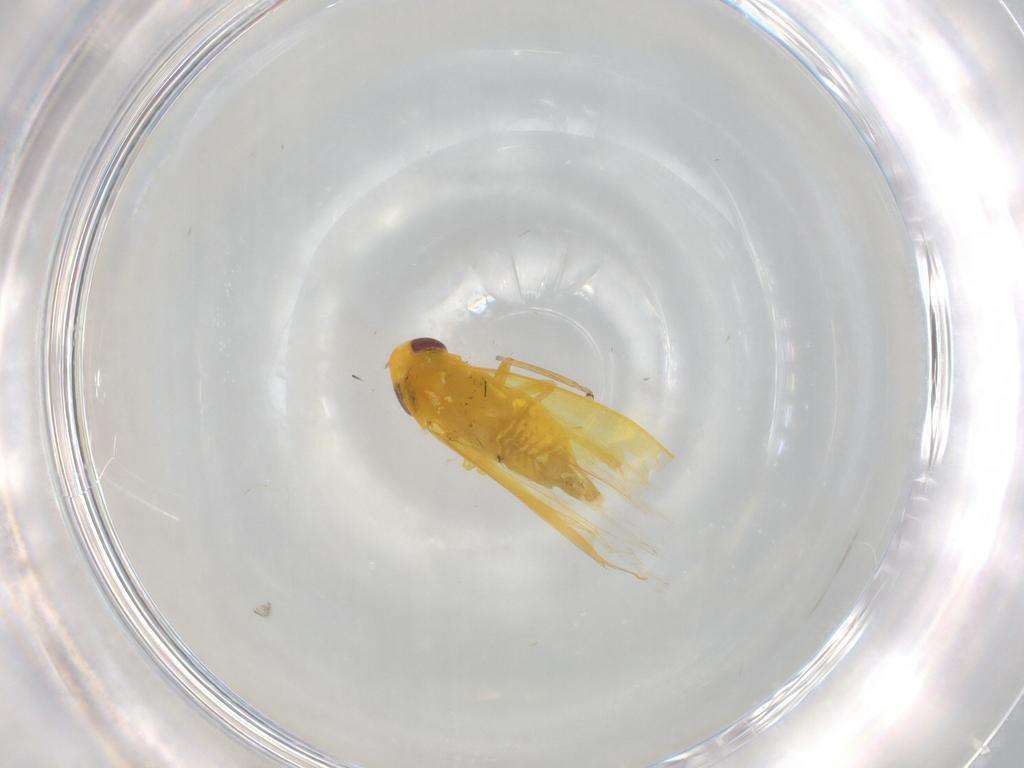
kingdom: Animalia
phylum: Arthropoda
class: Insecta
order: Hemiptera
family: Cicadellidae
